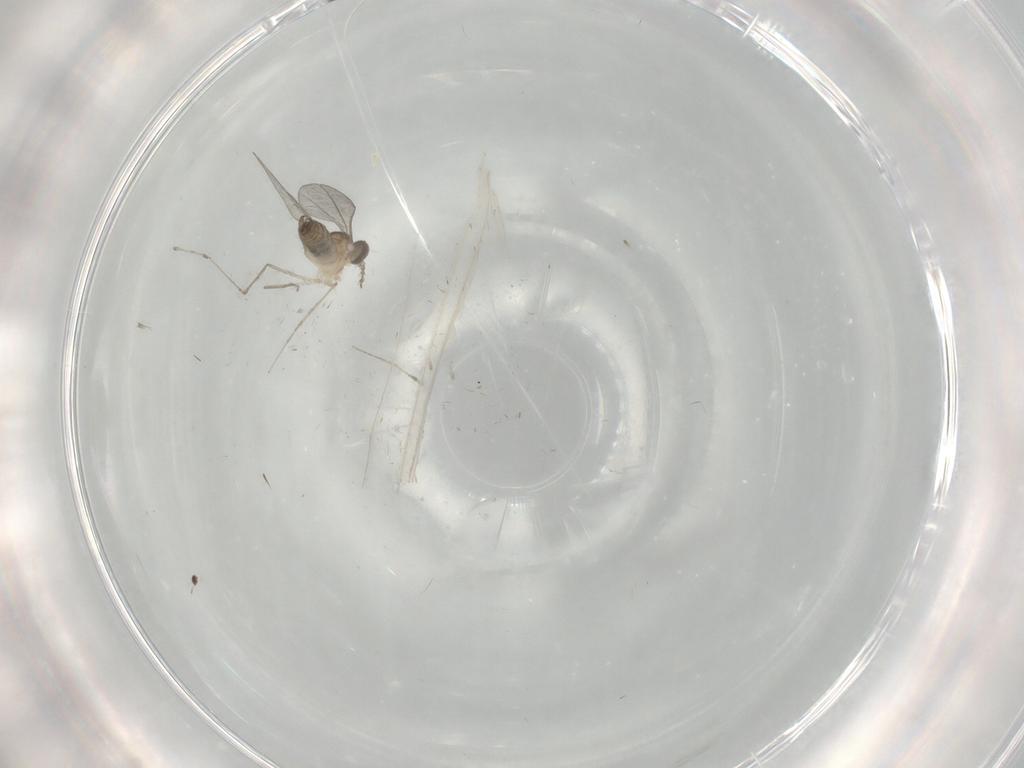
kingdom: Animalia
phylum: Arthropoda
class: Insecta
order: Diptera
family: Cecidomyiidae
